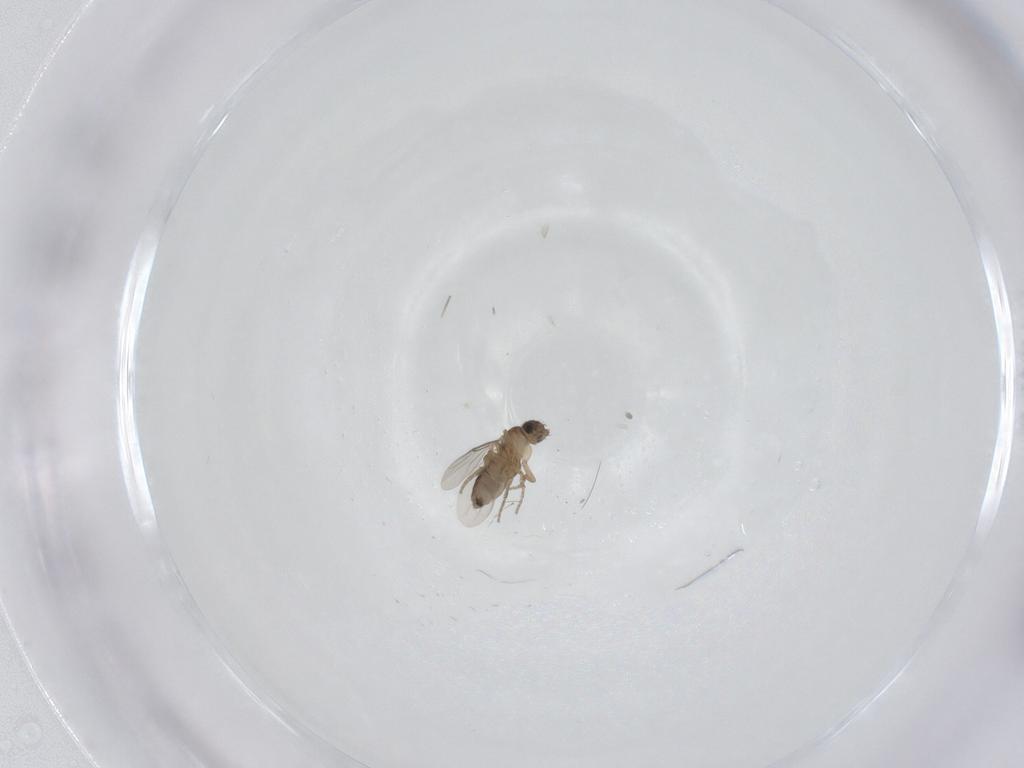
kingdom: Animalia
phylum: Arthropoda
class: Insecta
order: Diptera
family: Phoridae
